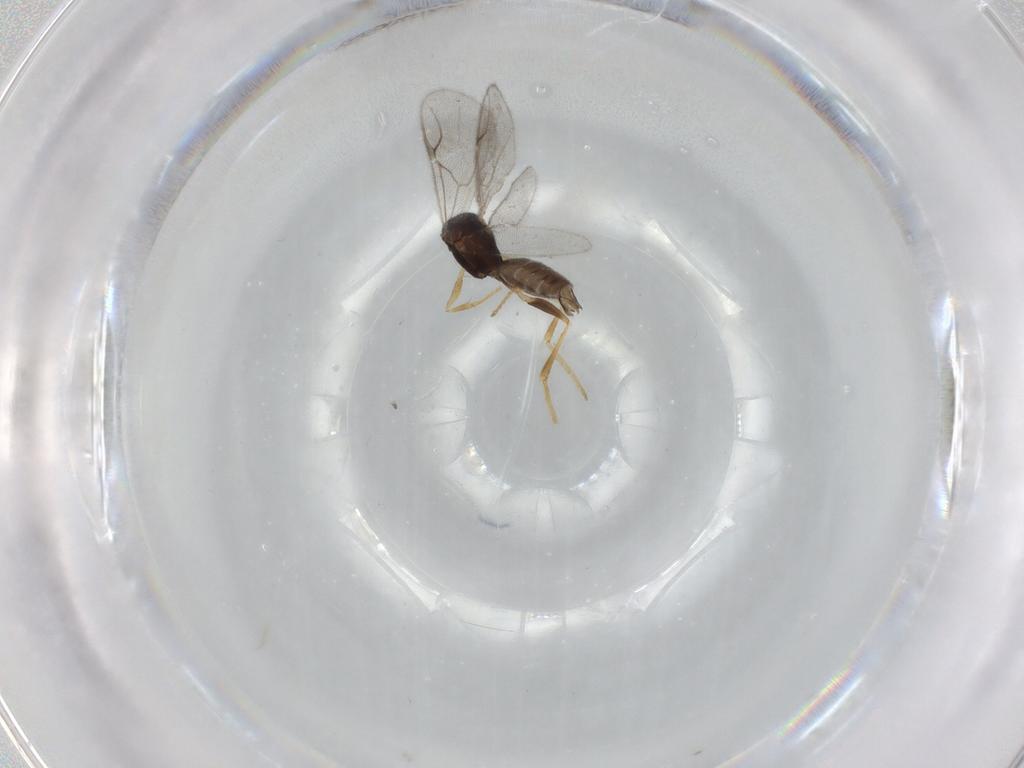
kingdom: Animalia
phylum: Arthropoda
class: Insecta
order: Hymenoptera
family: Dryinidae
